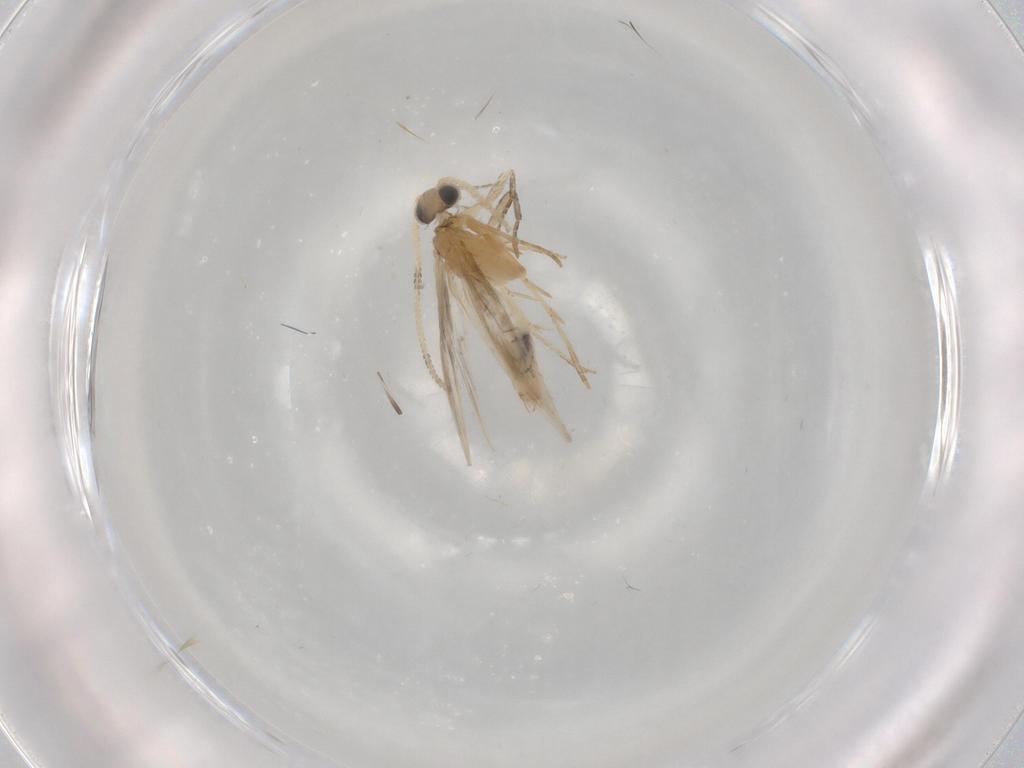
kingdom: Animalia
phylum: Arthropoda
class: Insecta
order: Trichoptera
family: Hydroptilidae
